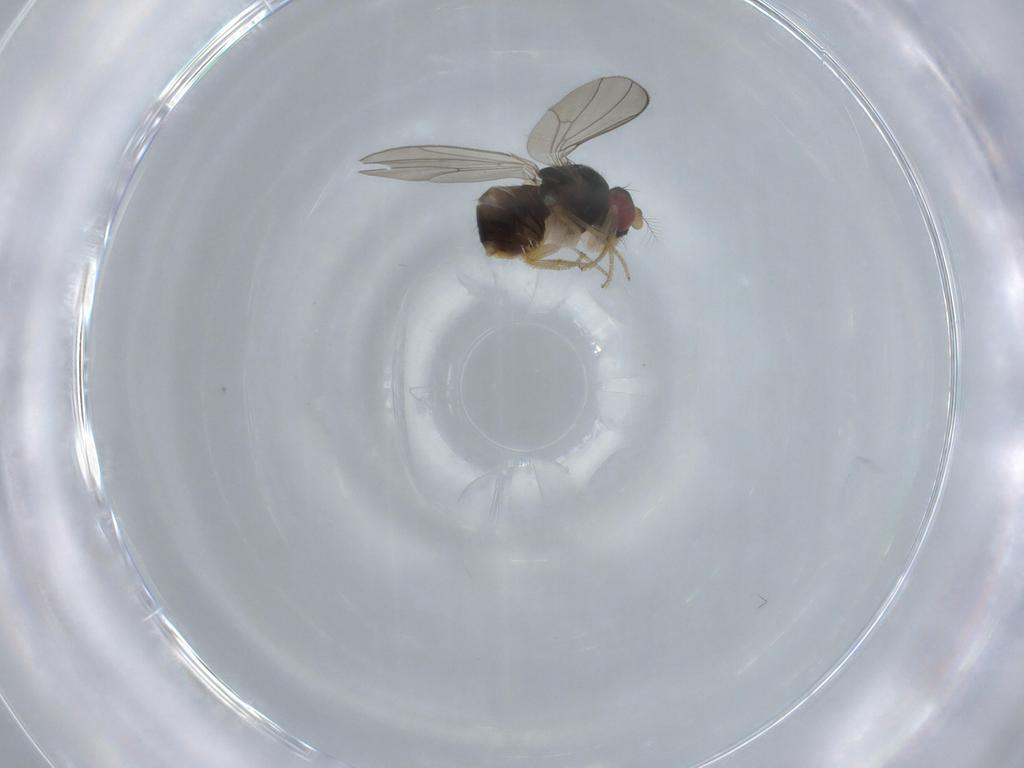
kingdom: Animalia
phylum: Arthropoda
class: Insecta
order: Diptera
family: Drosophilidae
